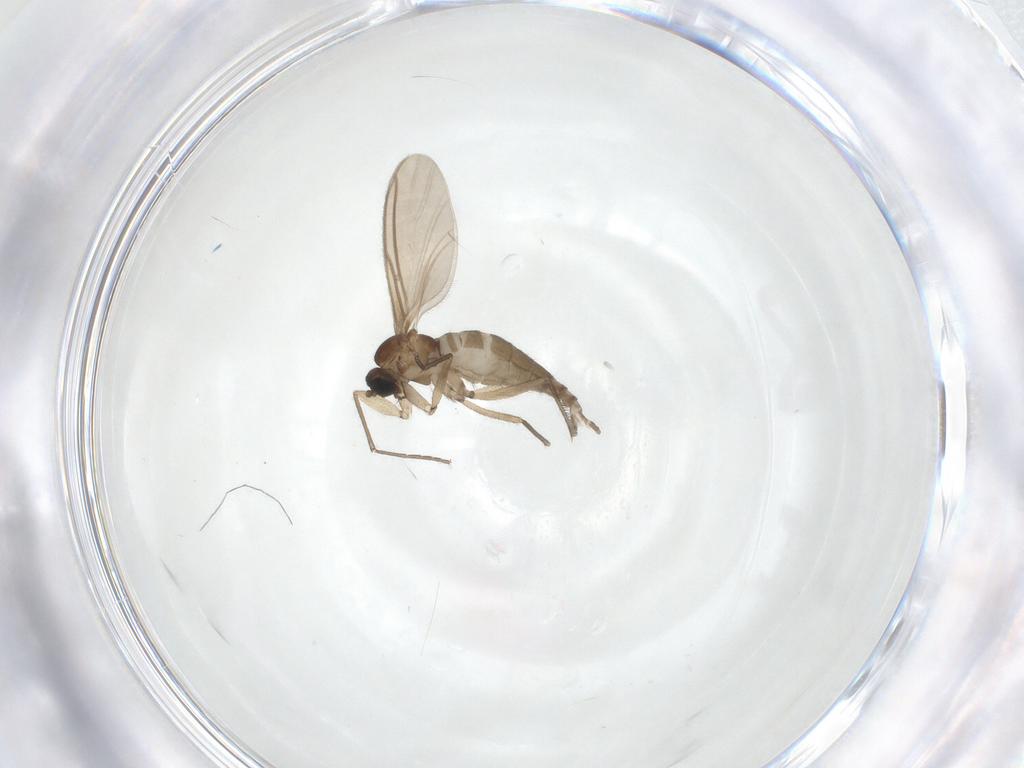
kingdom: Animalia
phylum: Arthropoda
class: Insecta
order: Diptera
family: Sciaridae
